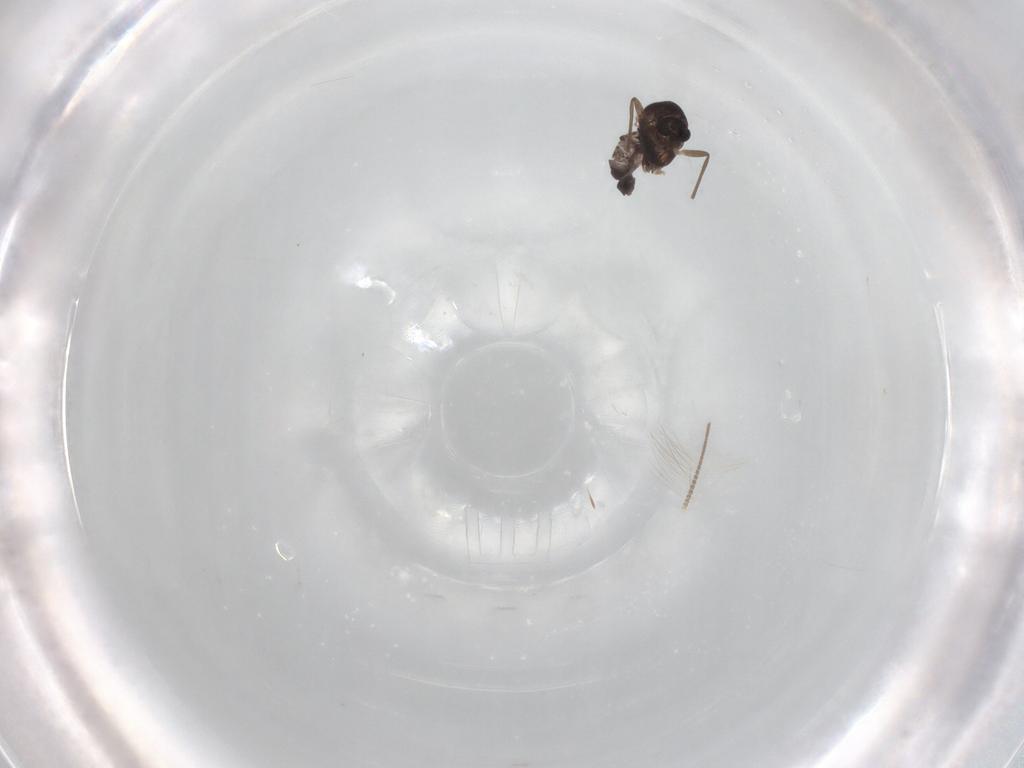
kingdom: Animalia
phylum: Arthropoda
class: Insecta
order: Diptera
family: Chironomidae
